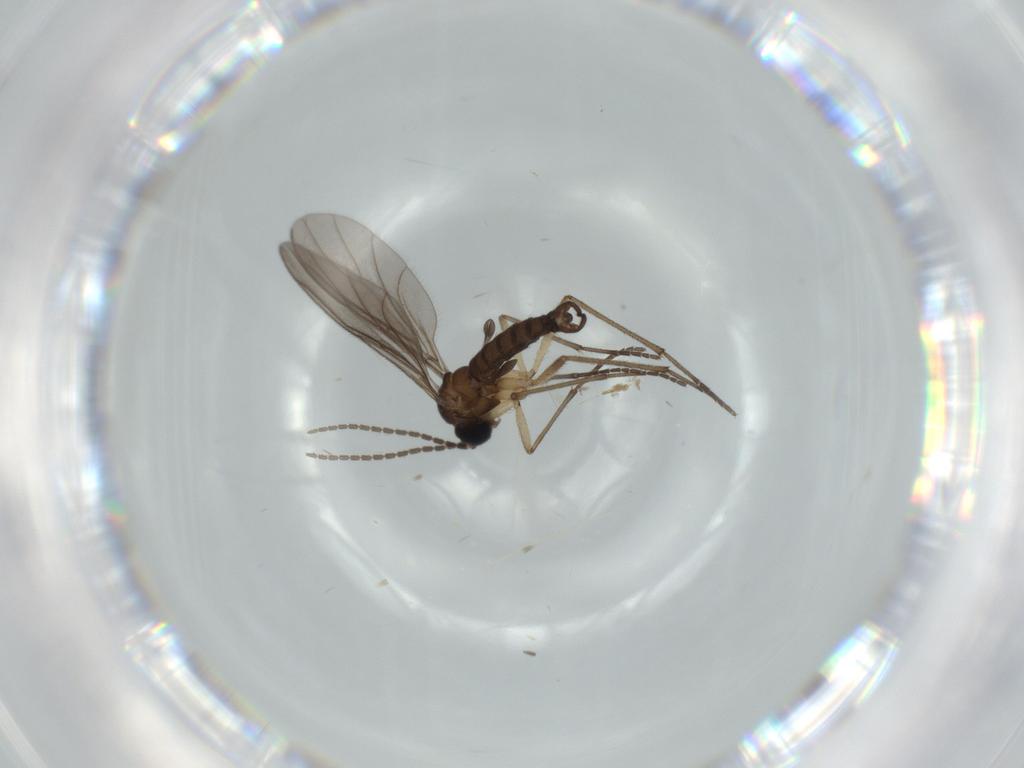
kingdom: Animalia
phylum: Arthropoda
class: Insecta
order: Diptera
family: Sciaridae
